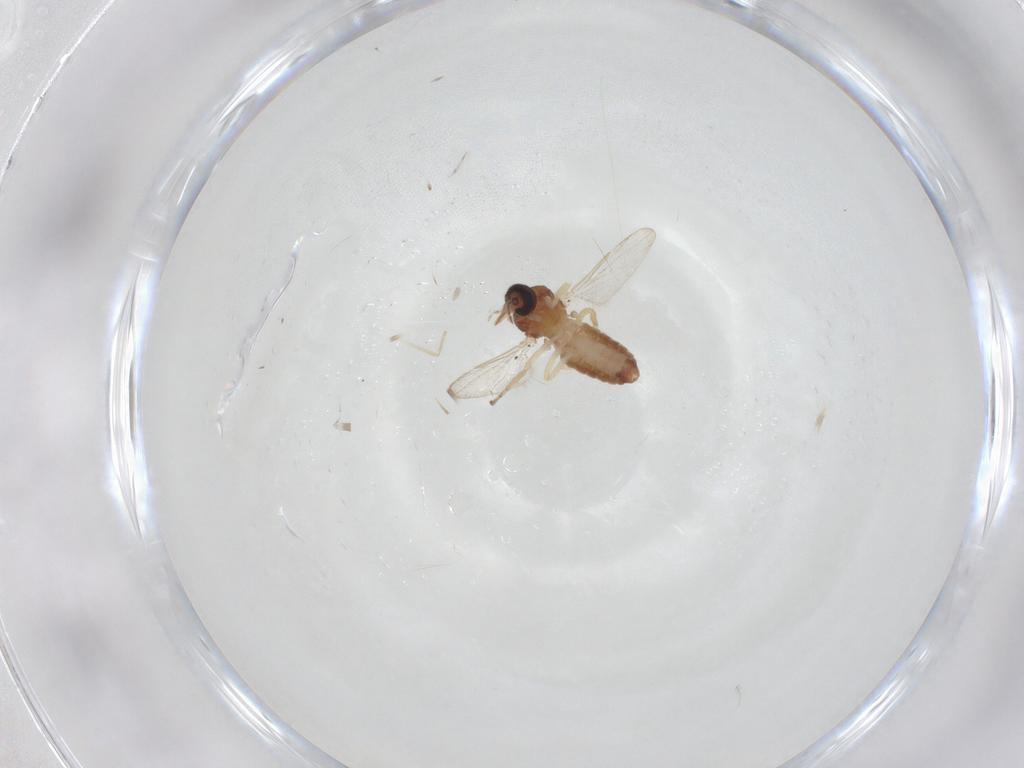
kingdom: Animalia
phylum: Arthropoda
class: Insecta
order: Diptera
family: Ceratopogonidae
